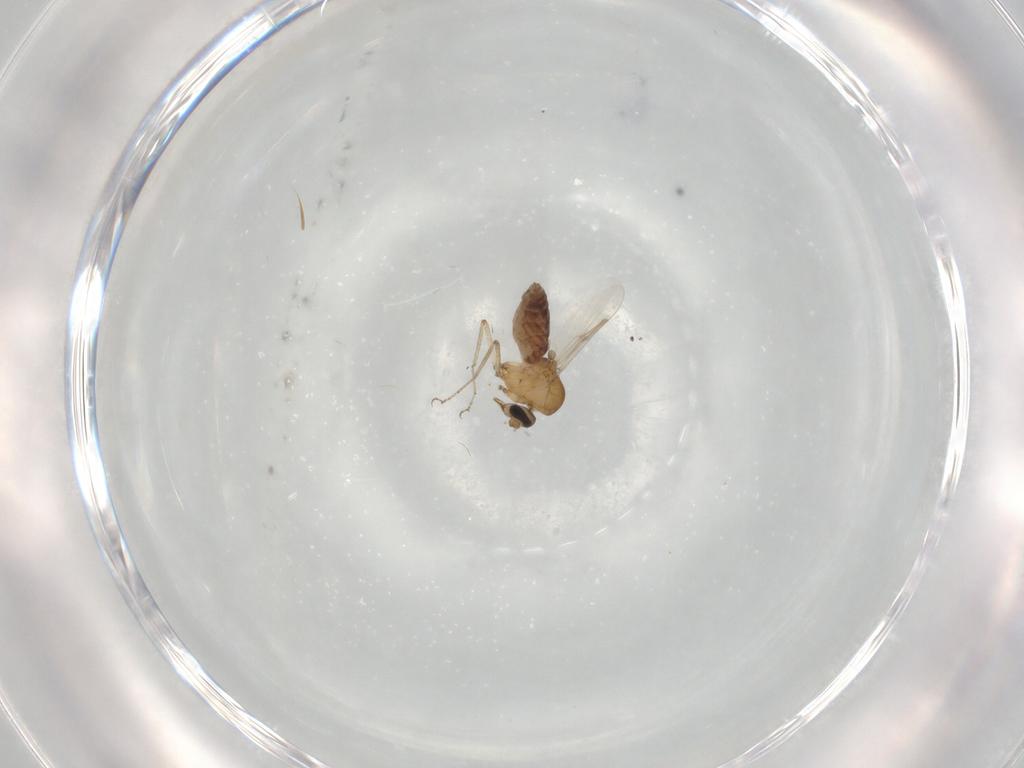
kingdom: Animalia
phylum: Arthropoda
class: Insecta
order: Diptera
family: Ceratopogonidae
